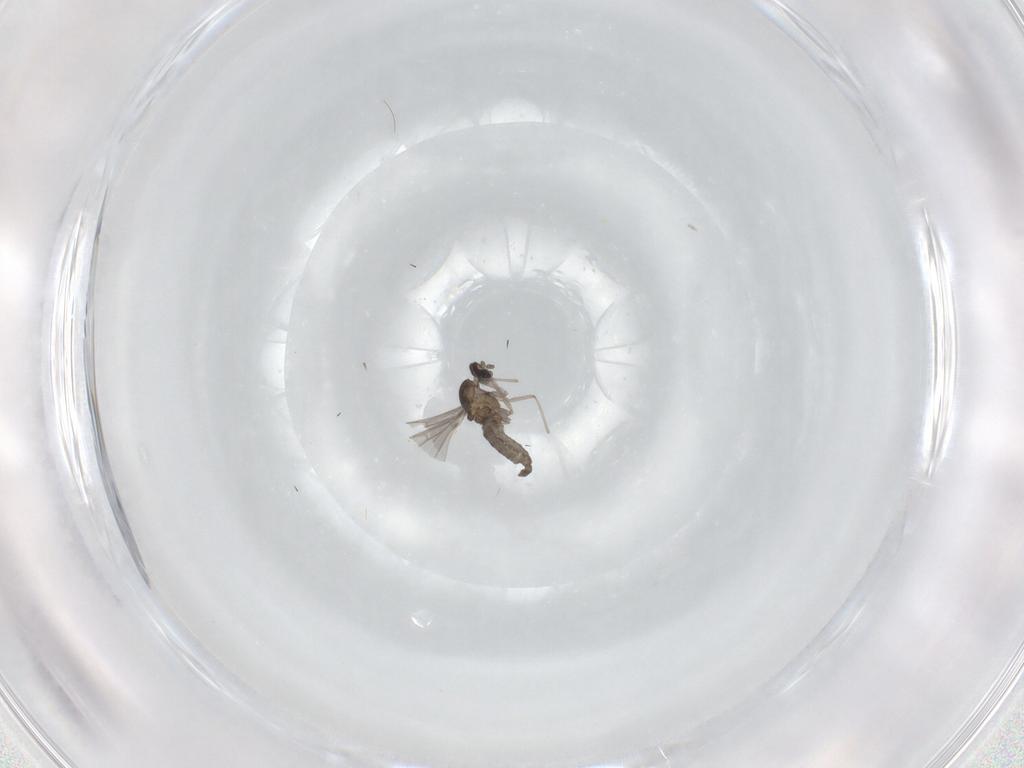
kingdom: Animalia
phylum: Arthropoda
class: Insecta
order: Diptera
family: Cecidomyiidae
